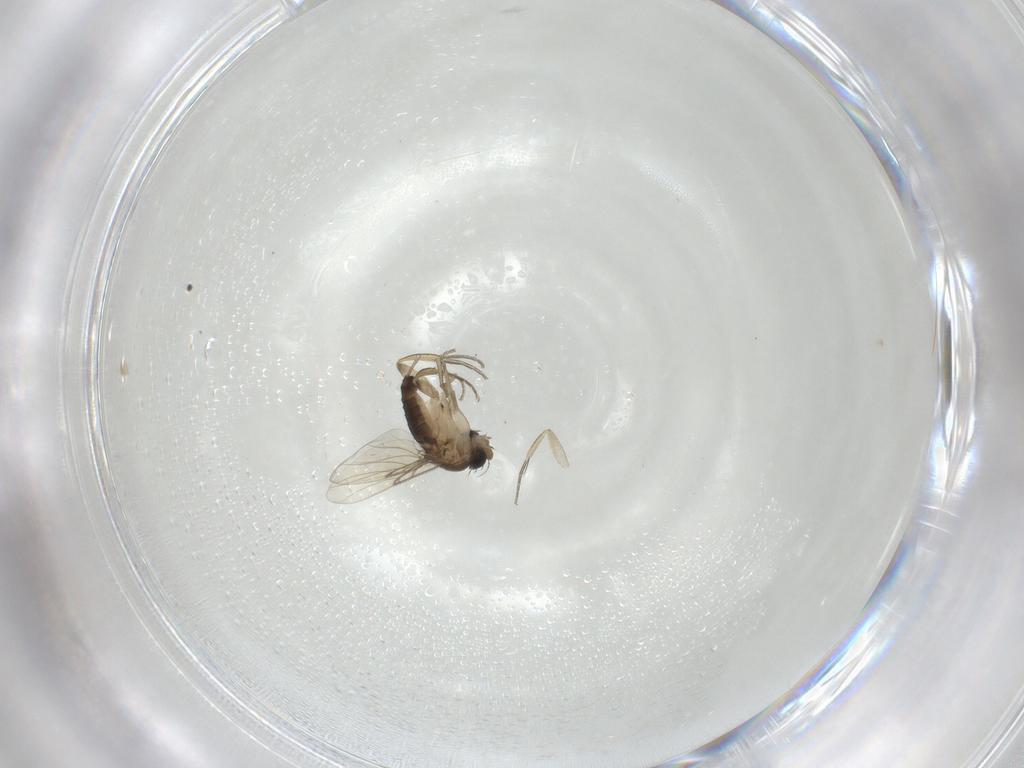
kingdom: Animalia
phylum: Arthropoda
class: Insecta
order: Diptera
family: Phoridae
